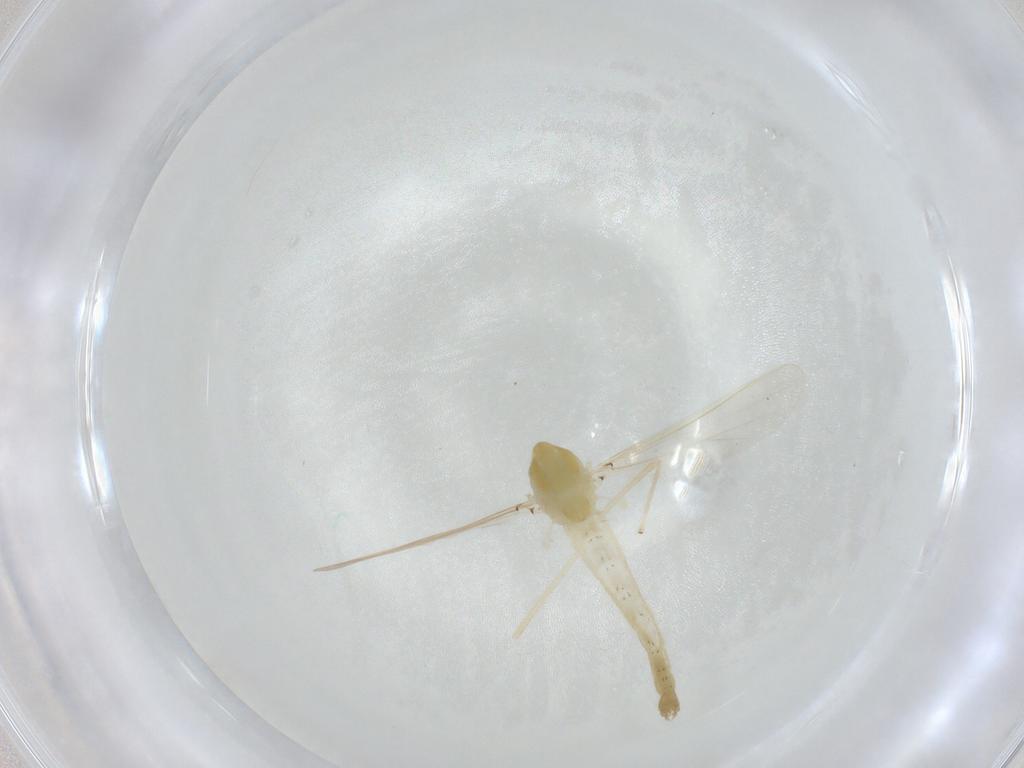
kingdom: Animalia
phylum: Arthropoda
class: Insecta
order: Diptera
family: Chironomidae
